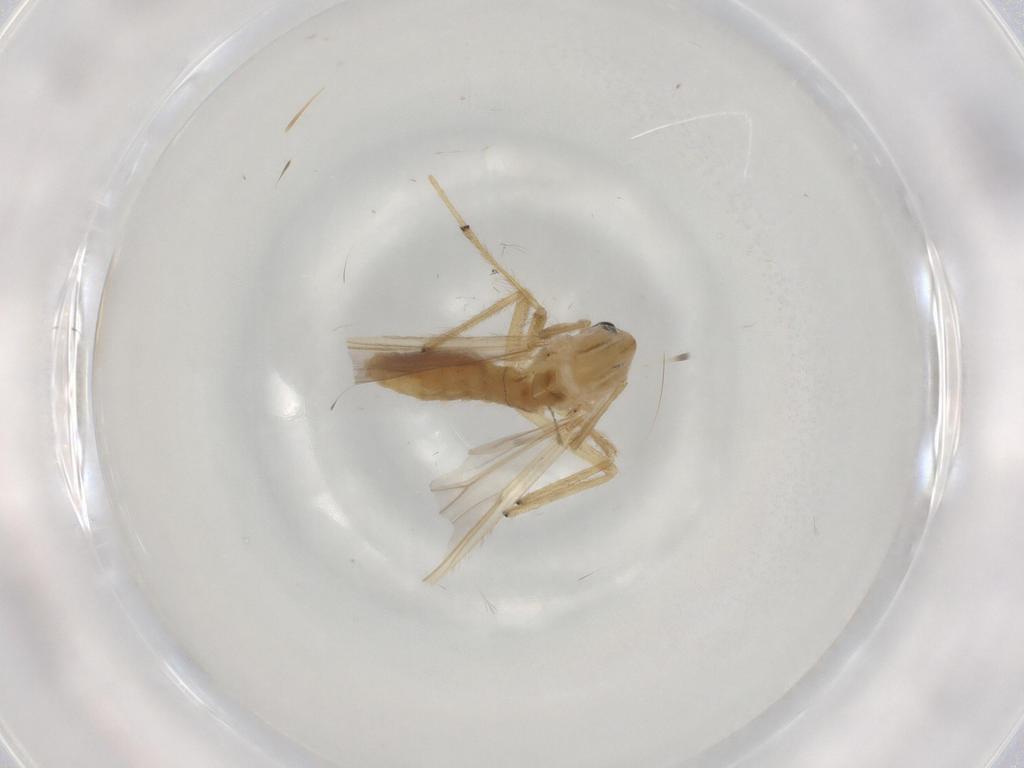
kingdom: Animalia
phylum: Arthropoda
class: Insecta
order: Diptera
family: Chironomidae
